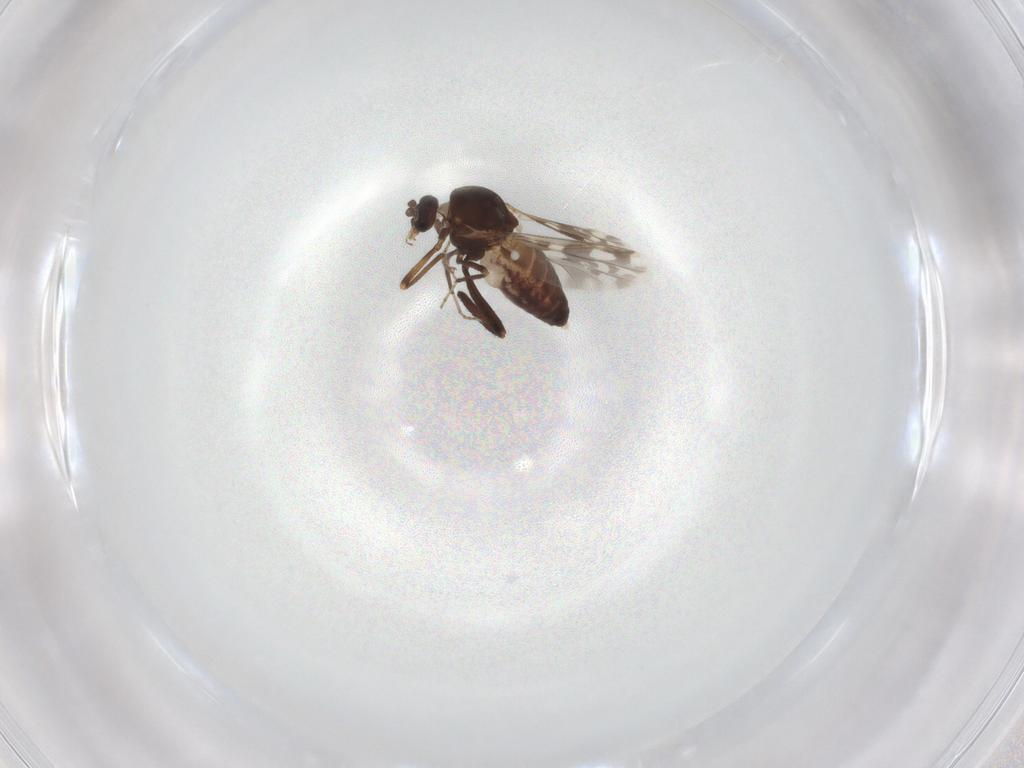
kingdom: Animalia
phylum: Arthropoda
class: Insecta
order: Diptera
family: Ceratopogonidae
